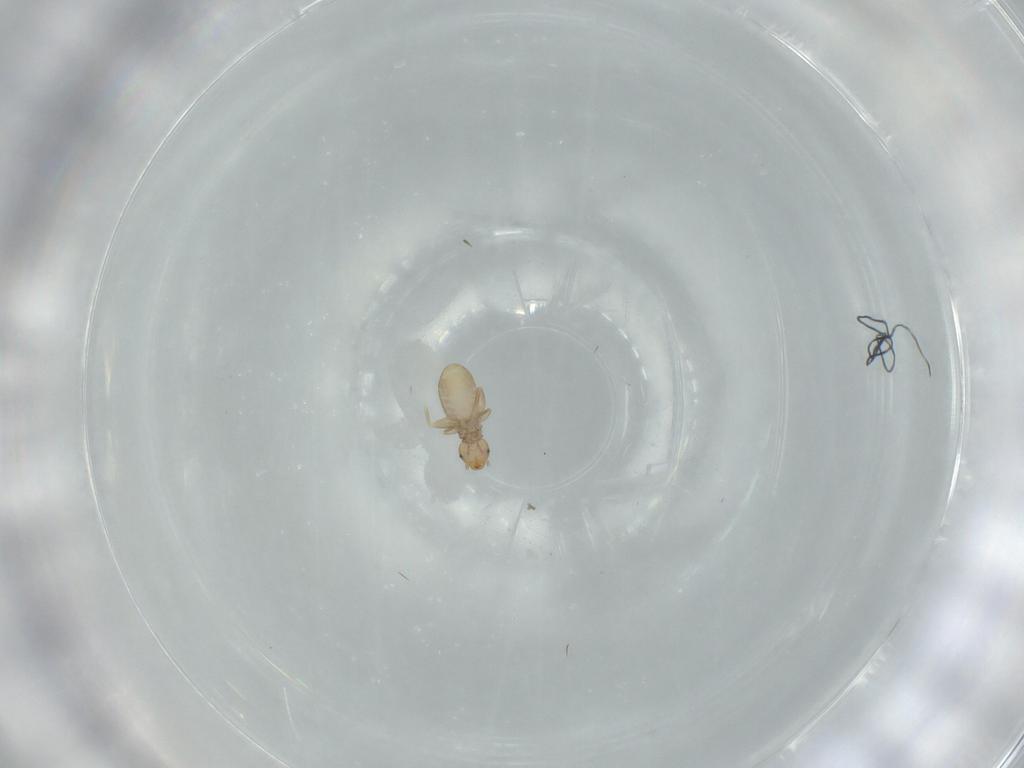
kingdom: Animalia
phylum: Arthropoda
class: Insecta
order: Psocodea
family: Liposcelididae
